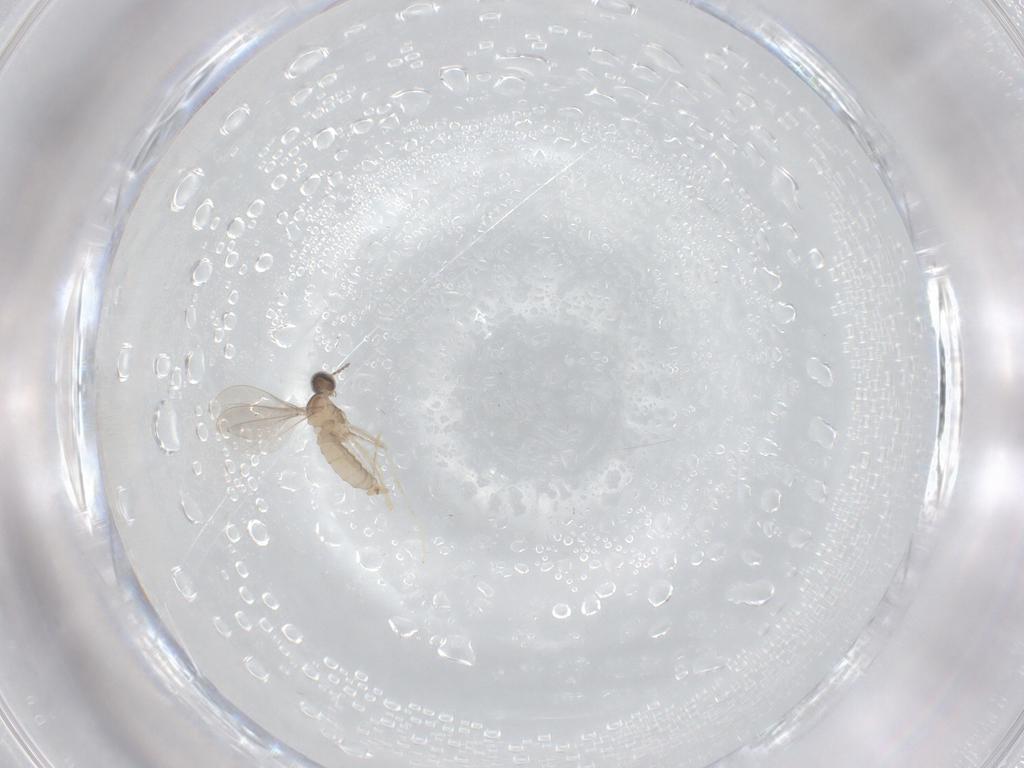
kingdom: Animalia
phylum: Arthropoda
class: Insecta
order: Diptera
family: Cecidomyiidae
